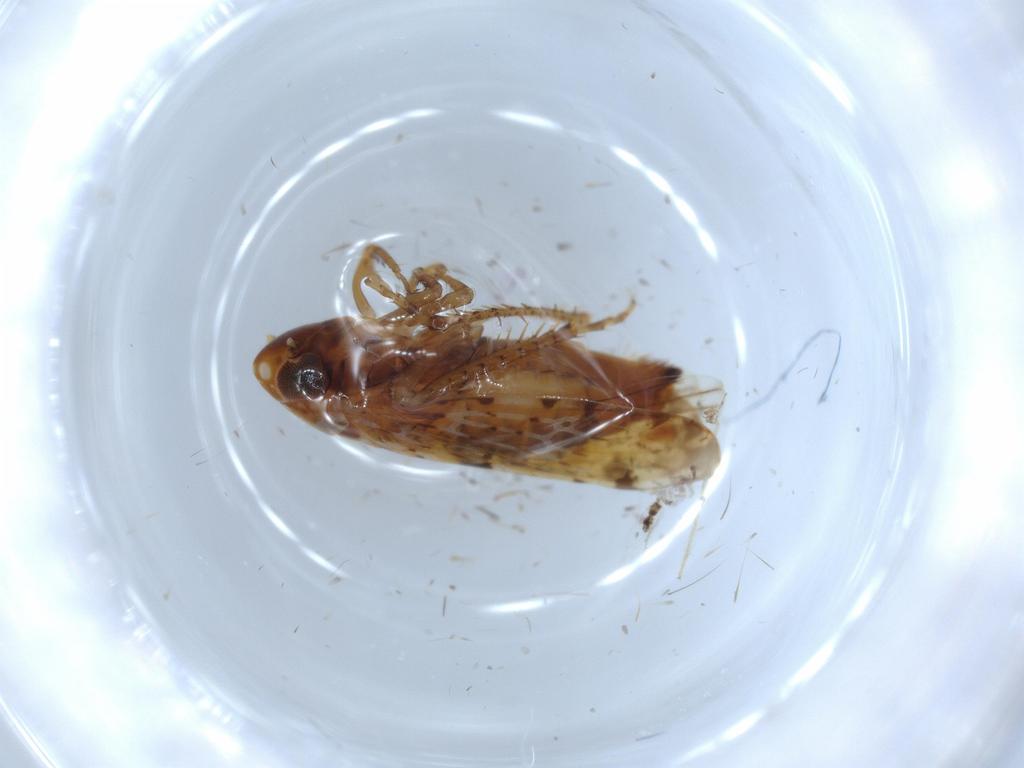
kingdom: Animalia
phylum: Arthropoda
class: Insecta
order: Hemiptera
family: Cicadellidae
